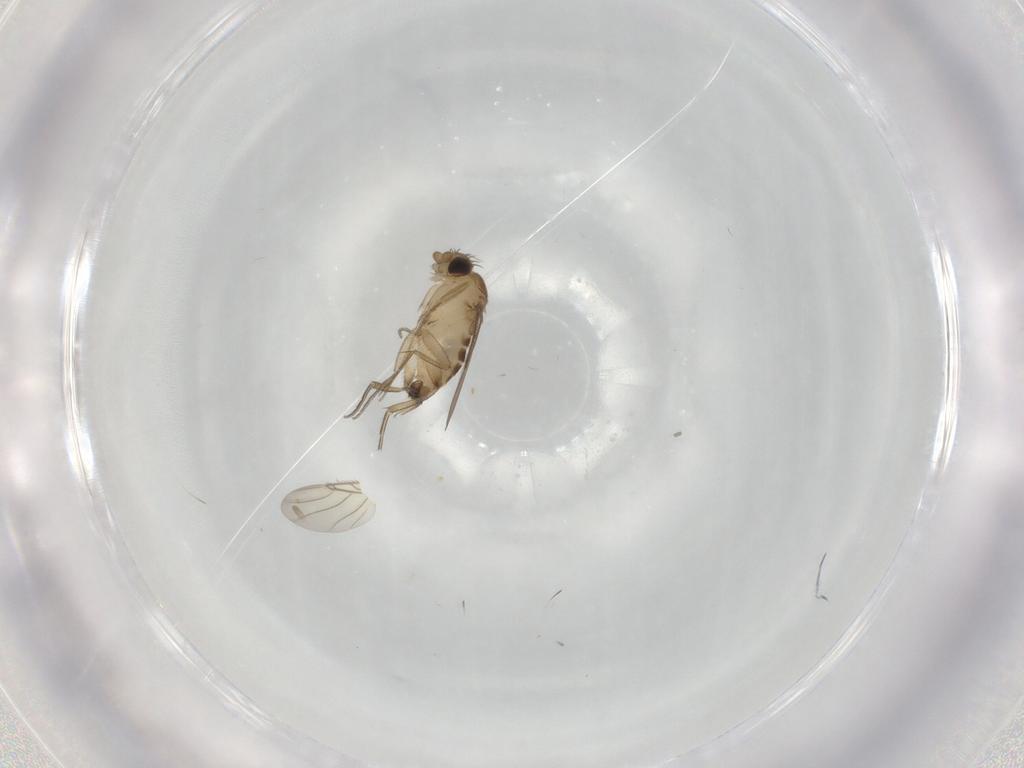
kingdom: Animalia
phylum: Arthropoda
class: Insecta
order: Diptera
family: Phoridae
